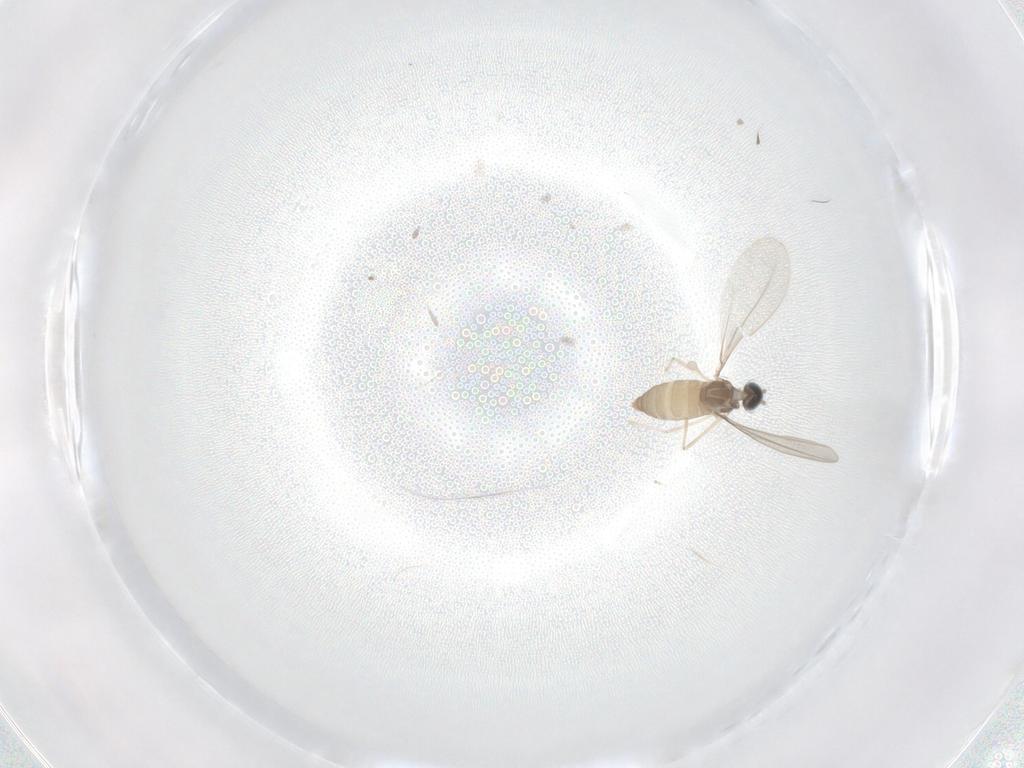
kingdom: Animalia
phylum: Arthropoda
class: Insecta
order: Diptera
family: Cecidomyiidae
